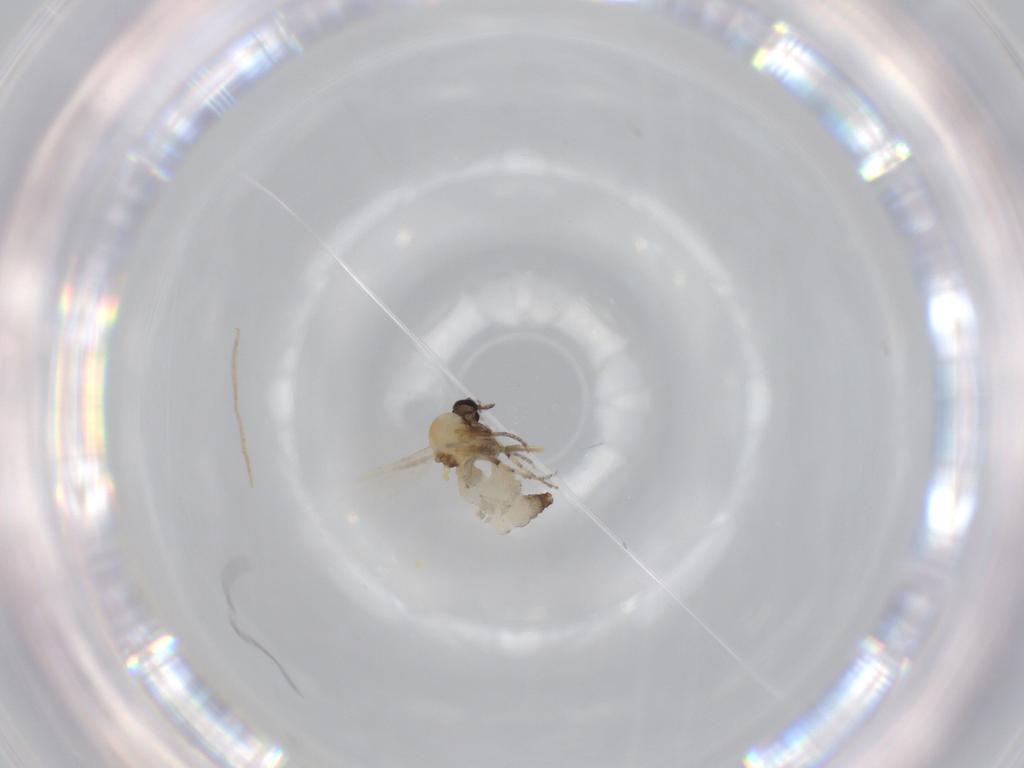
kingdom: Animalia
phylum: Arthropoda
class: Insecta
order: Diptera
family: Ceratopogonidae
